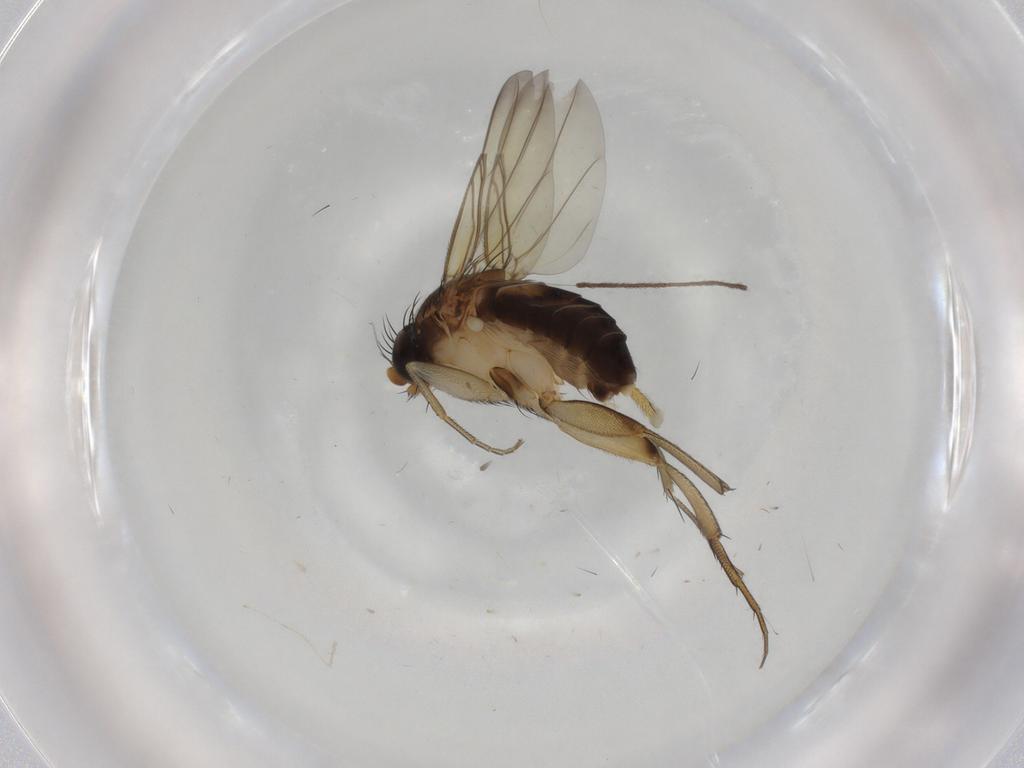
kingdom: Animalia
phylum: Arthropoda
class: Insecta
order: Diptera
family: Phoridae
